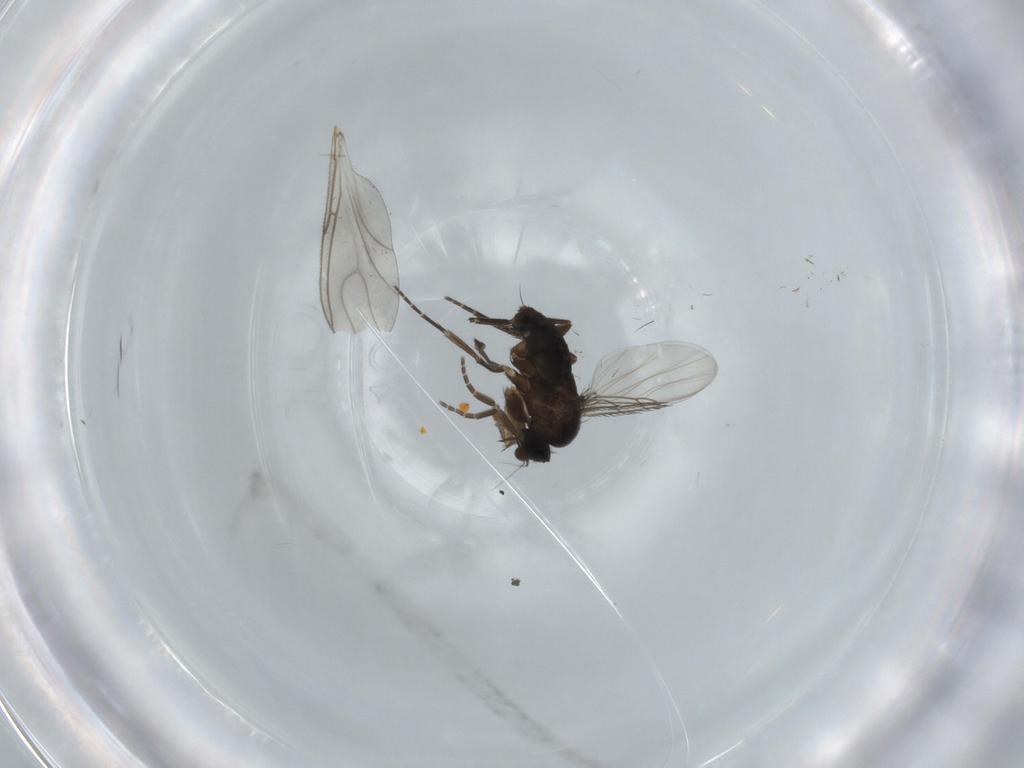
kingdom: Animalia
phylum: Arthropoda
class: Insecta
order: Diptera
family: Phoridae
